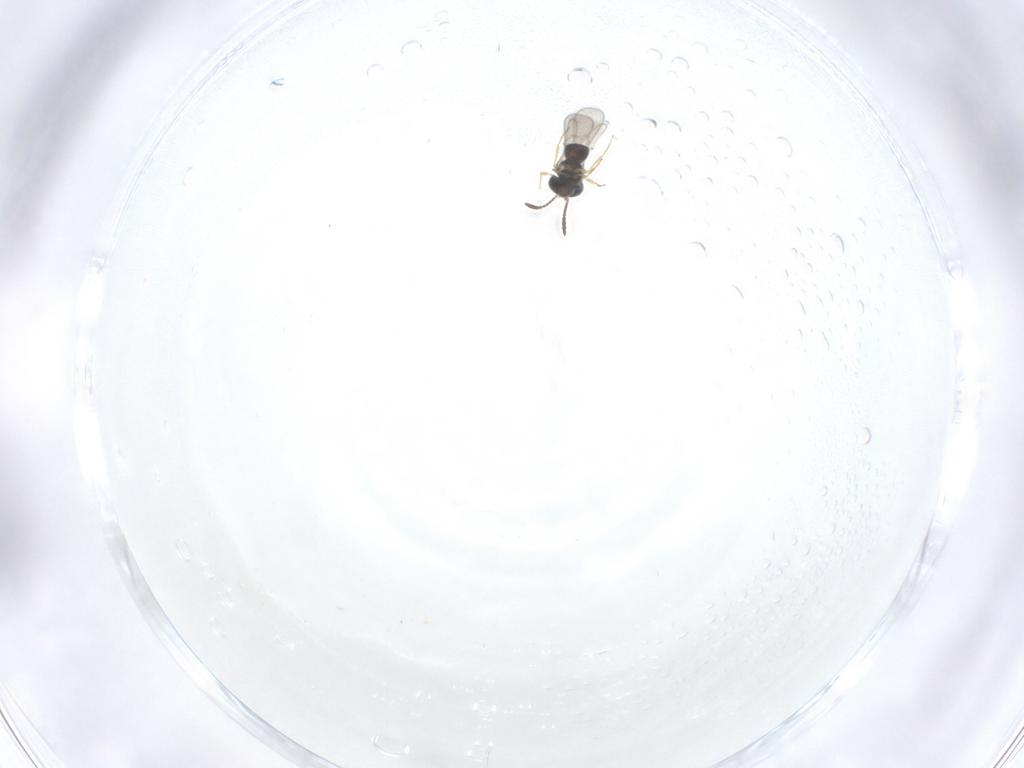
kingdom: Animalia
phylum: Arthropoda
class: Insecta
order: Hymenoptera
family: Scelionidae
